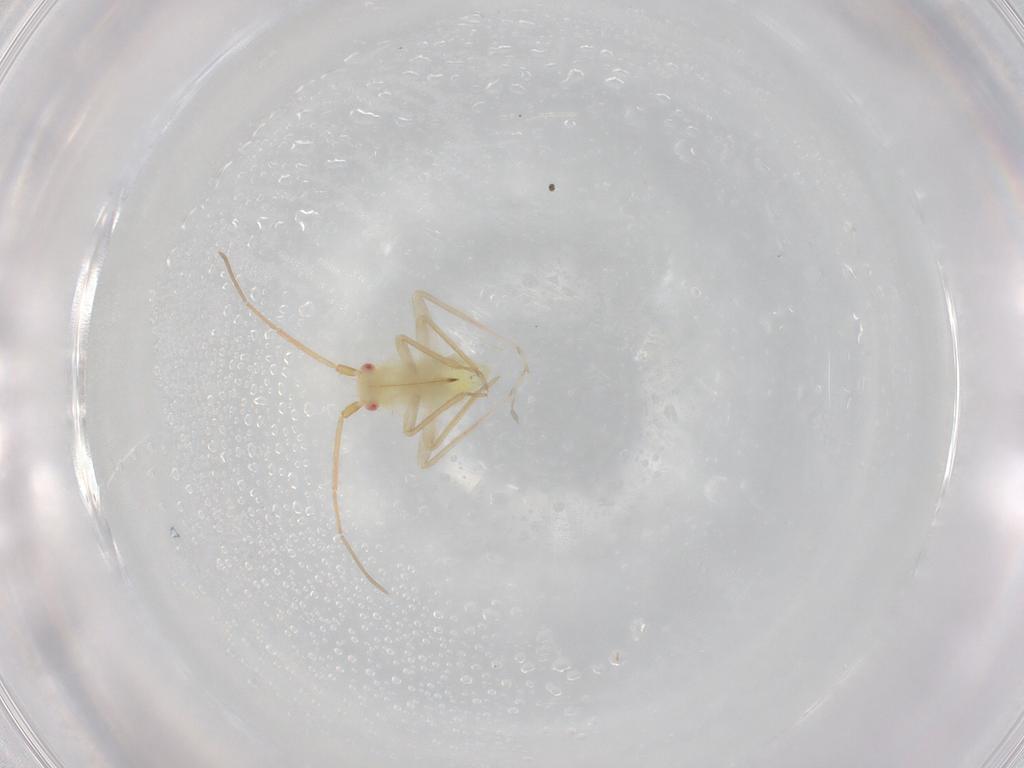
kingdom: Animalia
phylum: Arthropoda
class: Insecta
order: Hemiptera
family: Miridae
